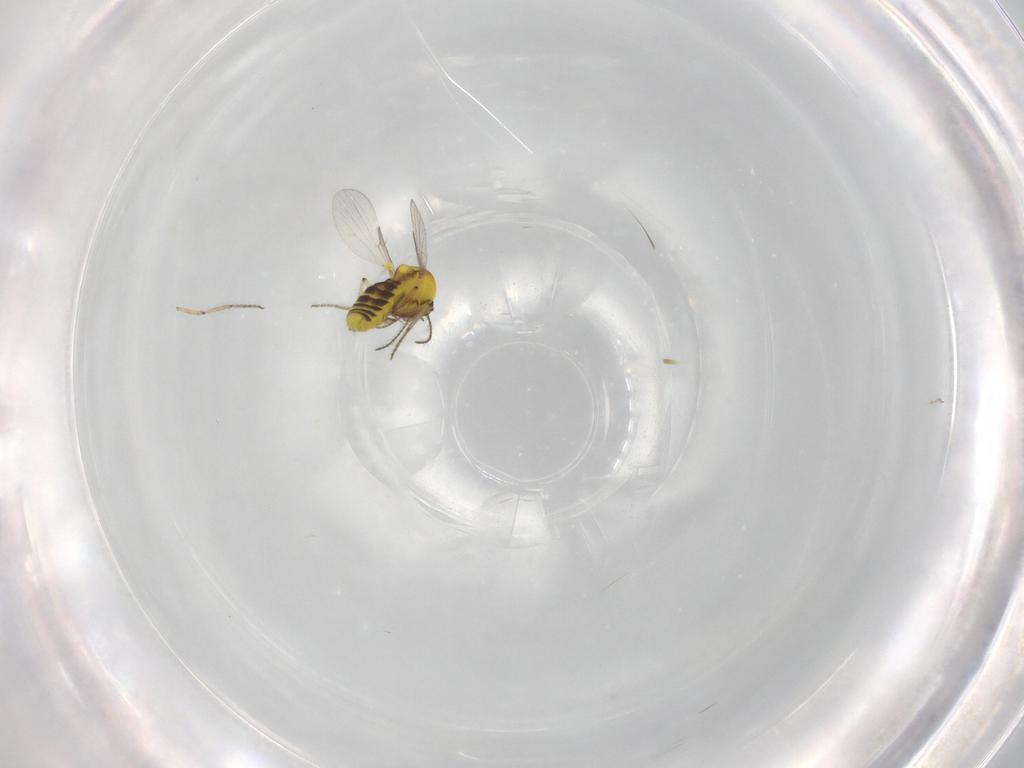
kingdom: Animalia
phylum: Arthropoda
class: Insecta
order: Diptera
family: Ceratopogonidae
